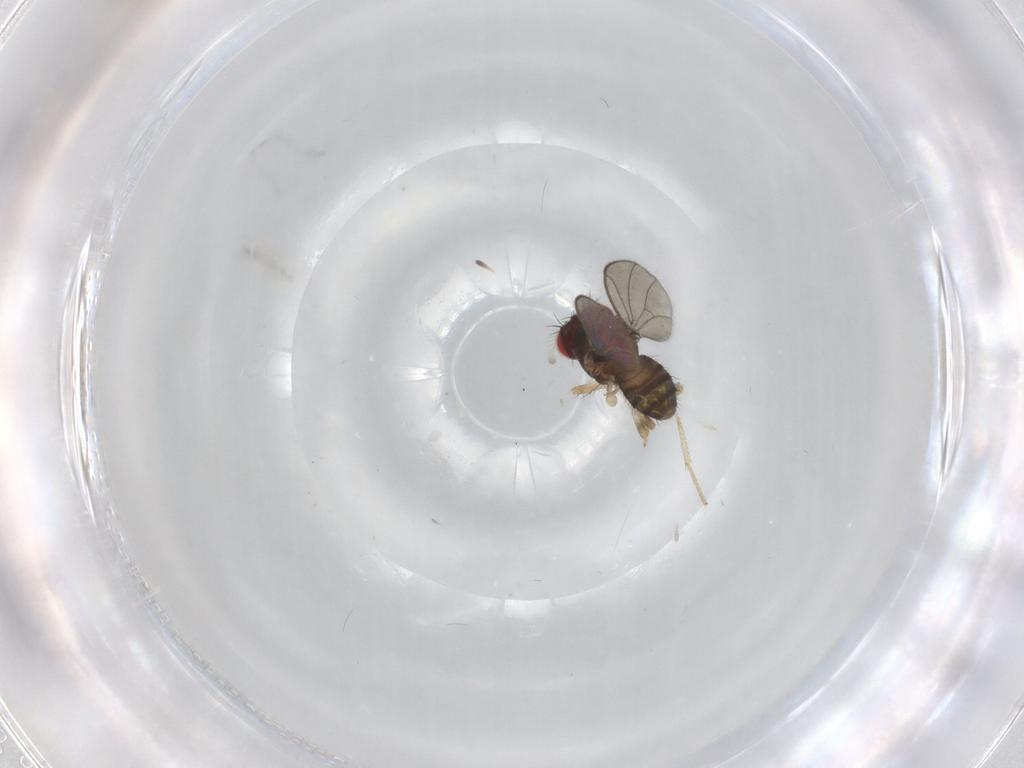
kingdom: Animalia
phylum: Arthropoda
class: Insecta
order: Diptera
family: Drosophilidae
